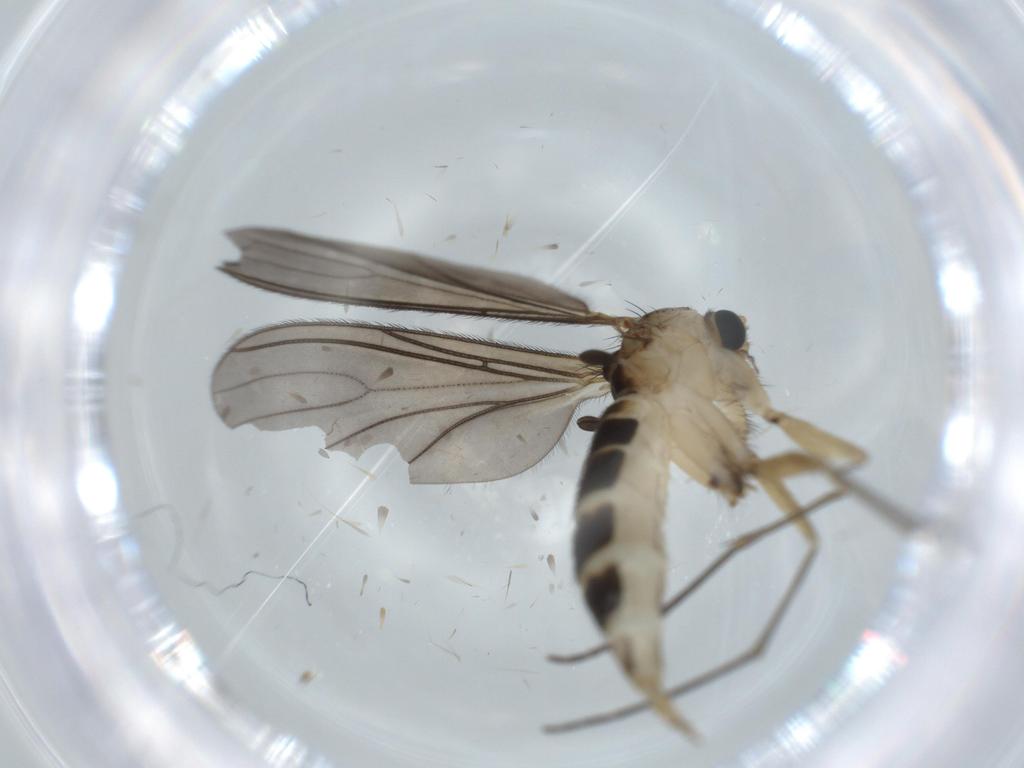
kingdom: Animalia
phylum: Arthropoda
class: Insecta
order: Diptera
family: Sciaridae
